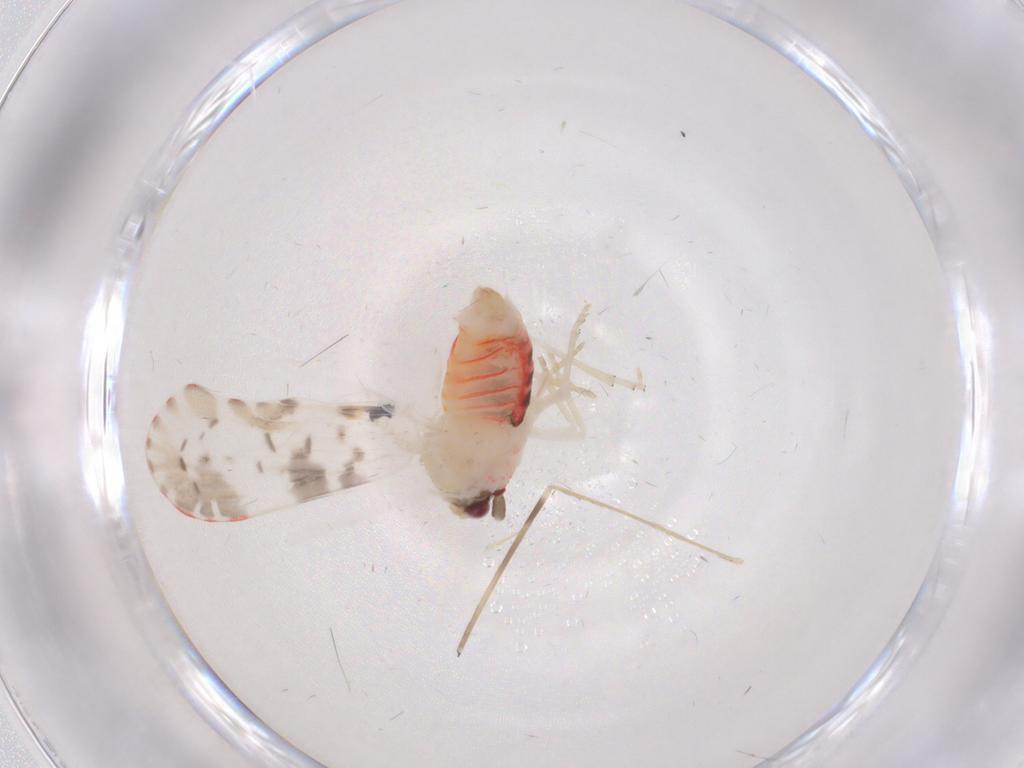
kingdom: Animalia
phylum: Arthropoda
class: Insecta
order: Hemiptera
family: Derbidae
